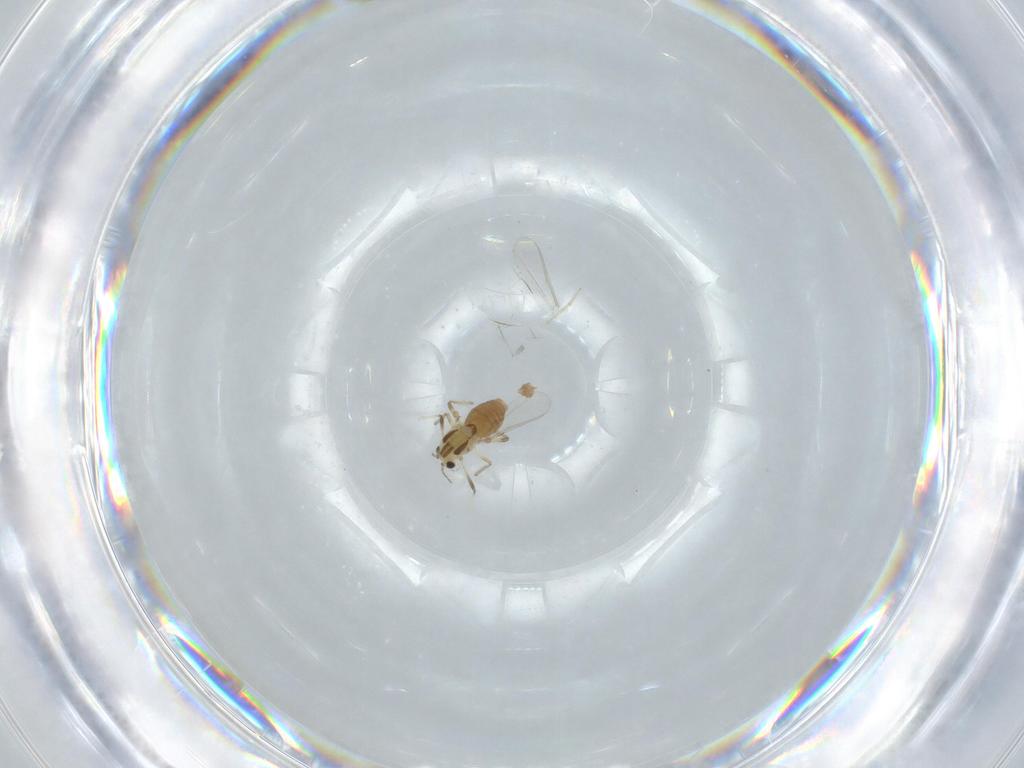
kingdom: Animalia
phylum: Arthropoda
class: Insecta
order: Diptera
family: Chironomidae
